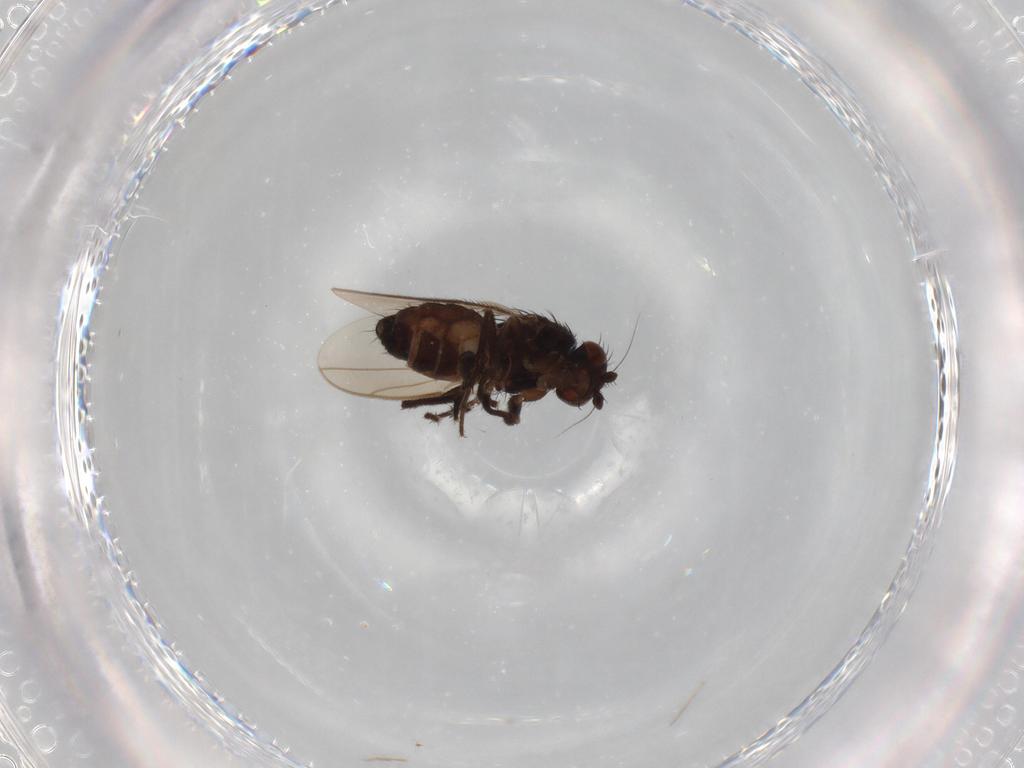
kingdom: Animalia
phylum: Arthropoda
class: Insecta
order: Diptera
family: Sphaeroceridae
